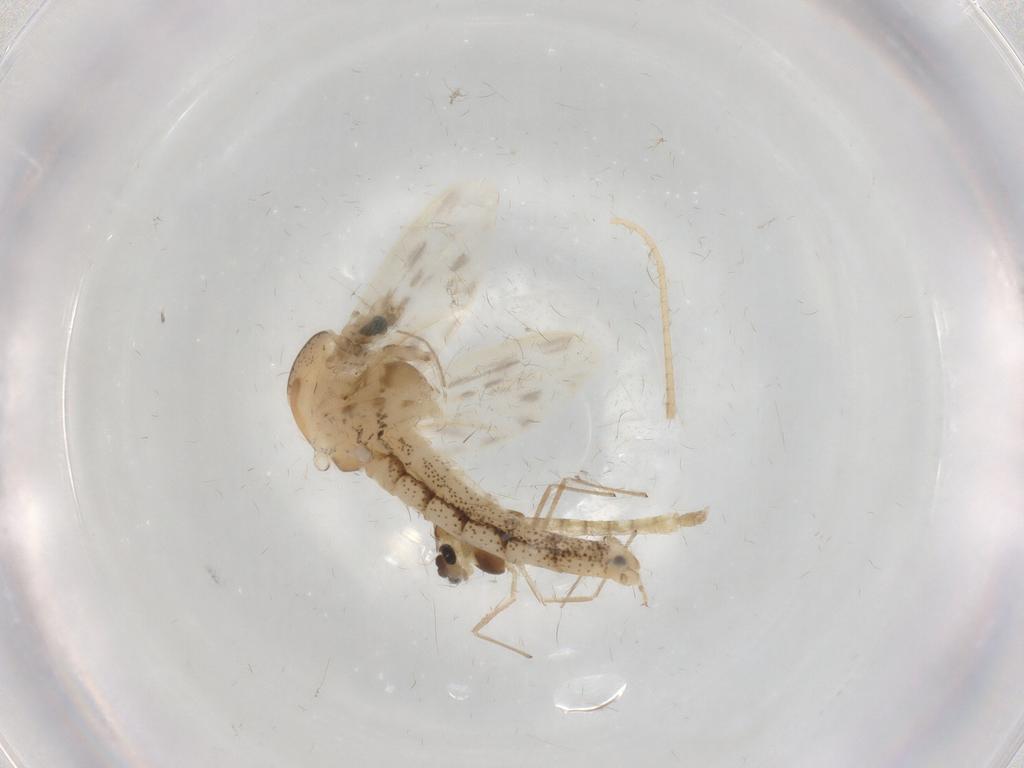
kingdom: Animalia
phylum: Arthropoda
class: Insecta
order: Diptera
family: Chaoboridae
